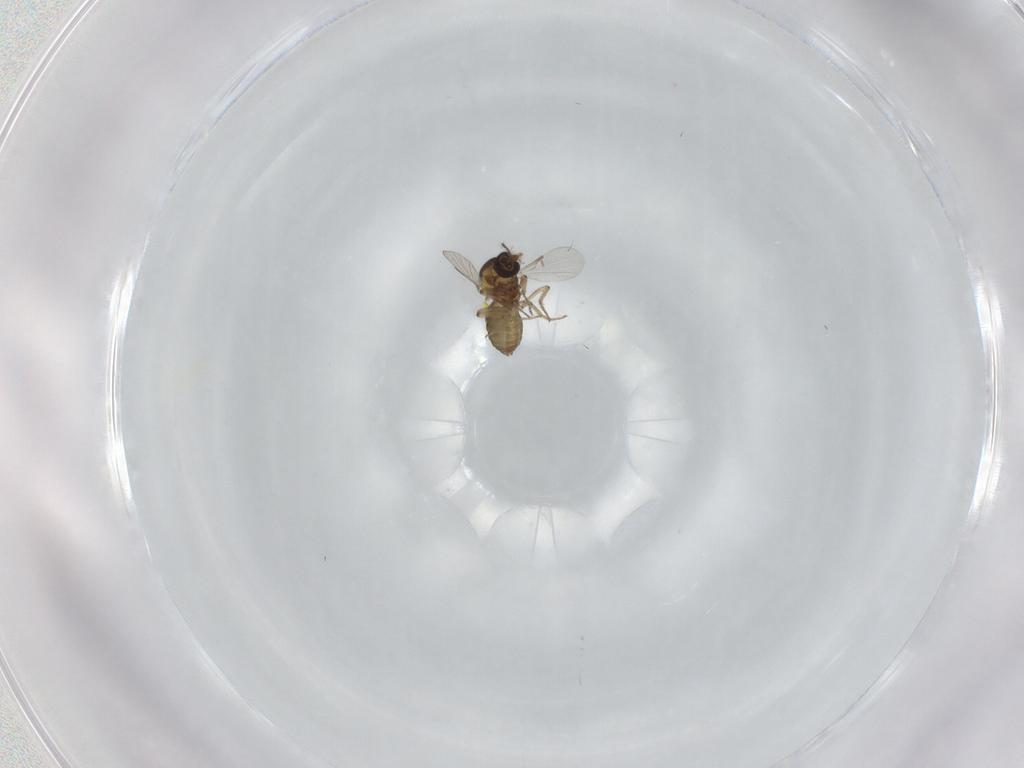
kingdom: Animalia
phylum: Arthropoda
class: Insecta
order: Diptera
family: Ceratopogonidae
